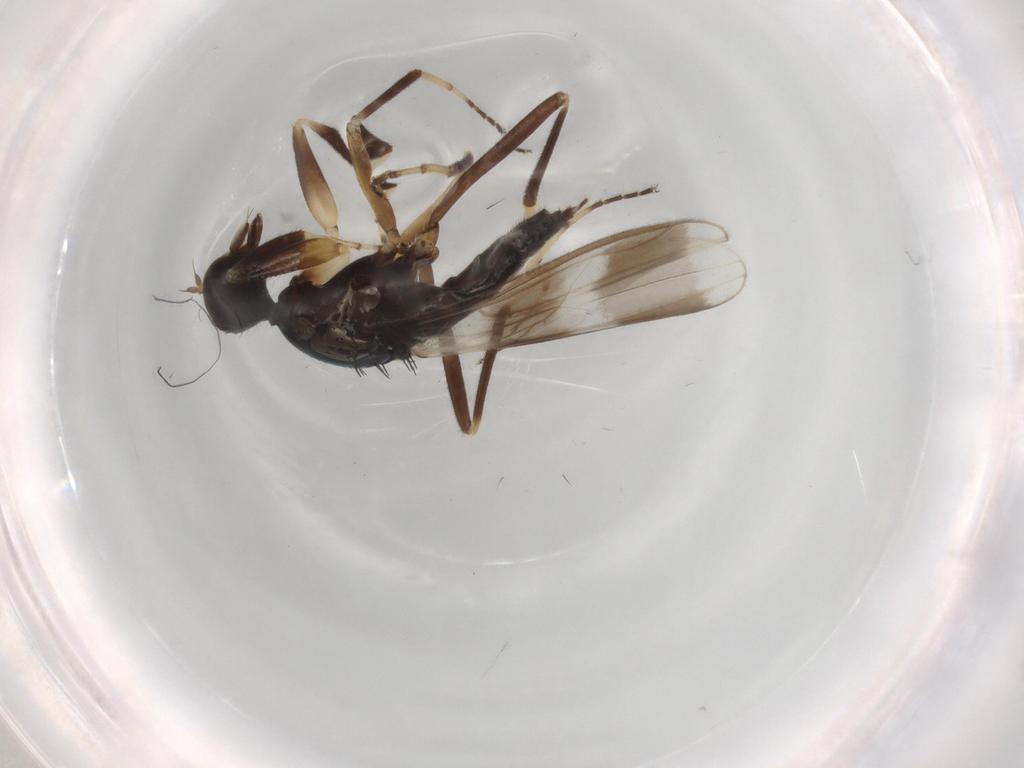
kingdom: Animalia
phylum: Arthropoda
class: Insecta
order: Diptera
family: Hybotidae
